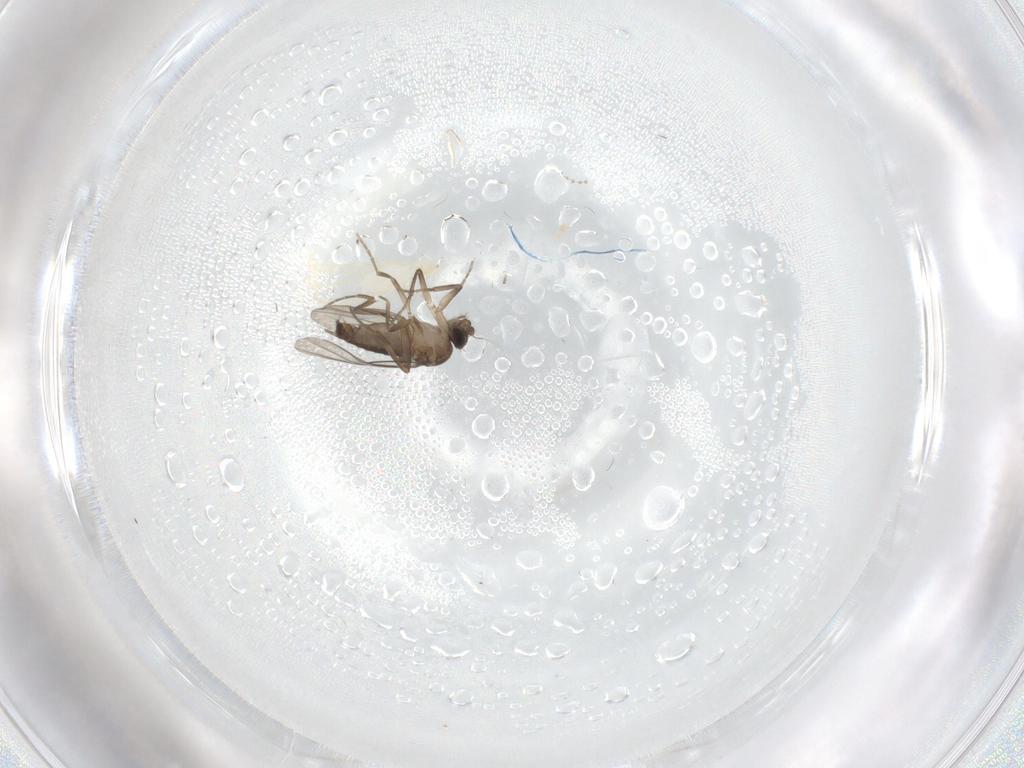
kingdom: Animalia
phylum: Arthropoda
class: Insecta
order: Diptera
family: Phoridae
